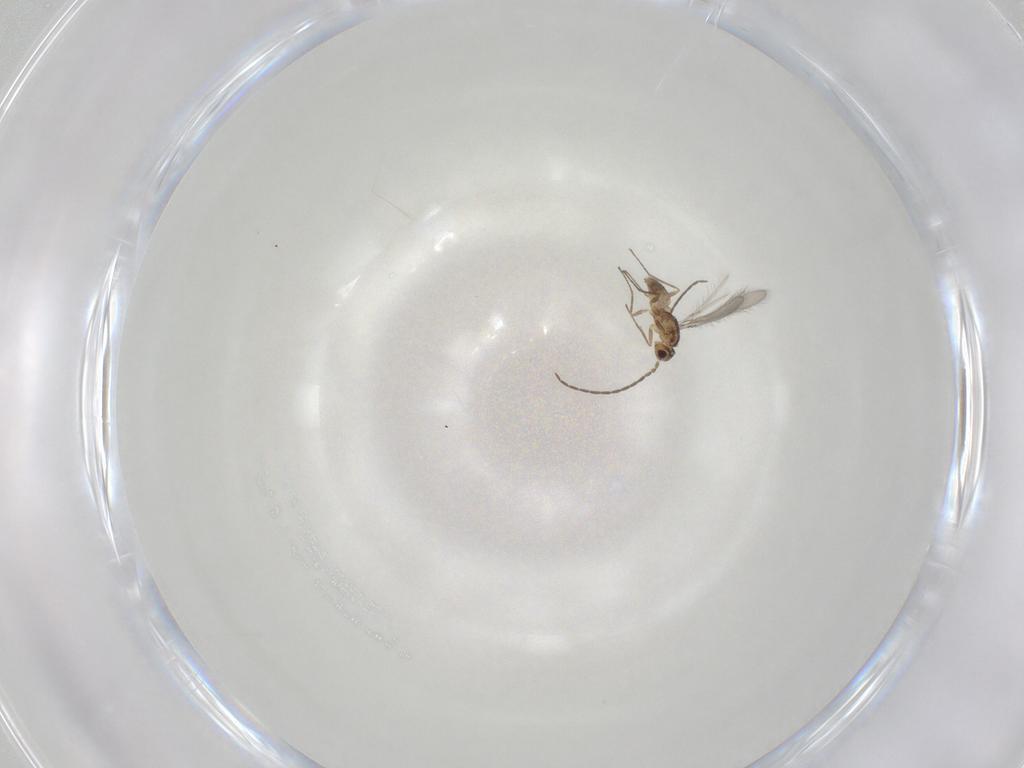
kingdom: Animalia
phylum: Arthropoda
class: Insecta
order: Hymenoptera
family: Mymaridae
